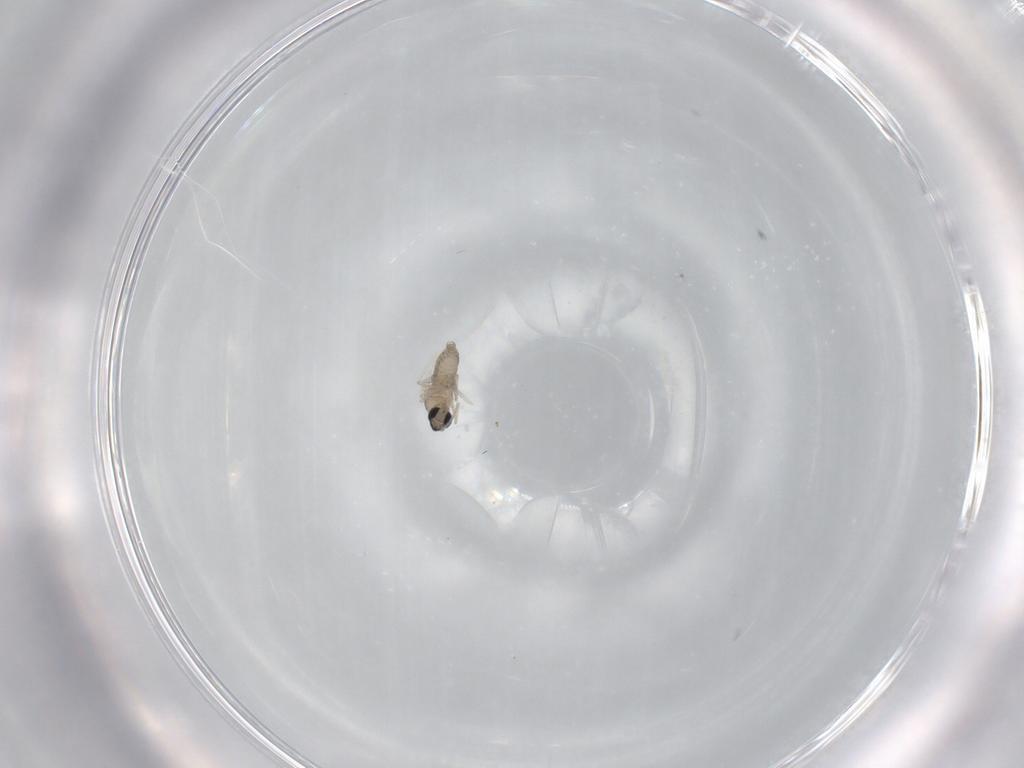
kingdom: Animalia
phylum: Arthropoda
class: Insecta
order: Diptera
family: Cecidomyiidae
